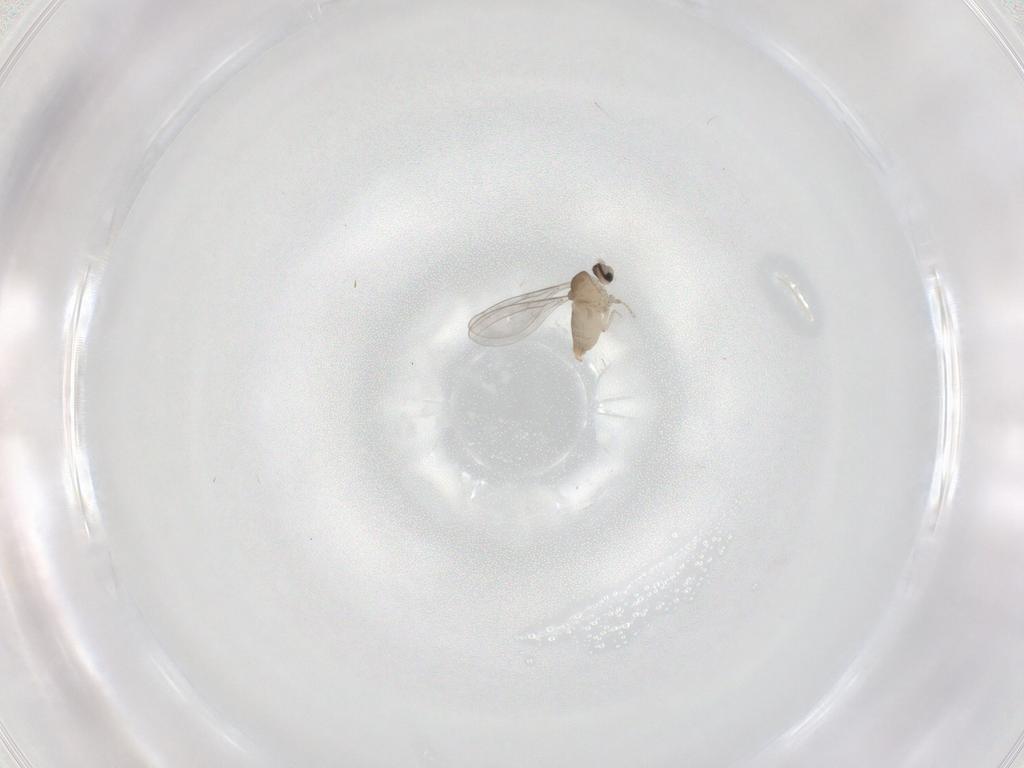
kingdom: Animalia
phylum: Arthropoda
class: Insecta
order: Diptera
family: Cecidomyiidae
